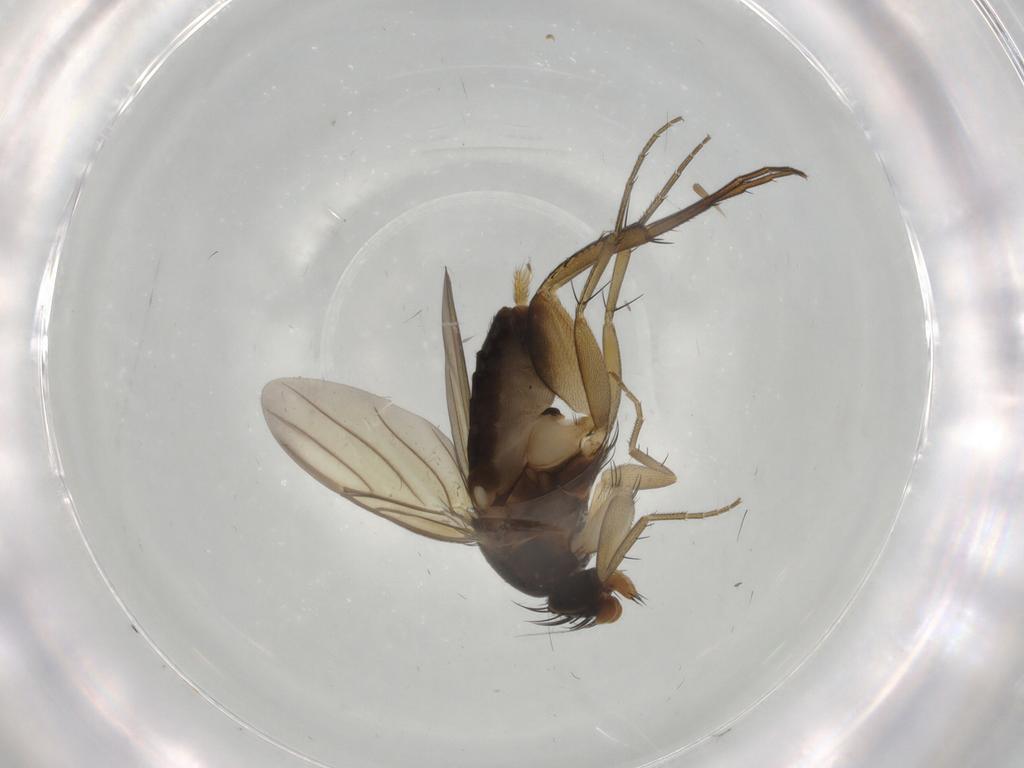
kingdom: Animalia
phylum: Arthropoda
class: Insecta
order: Diptera
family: Phoridae
